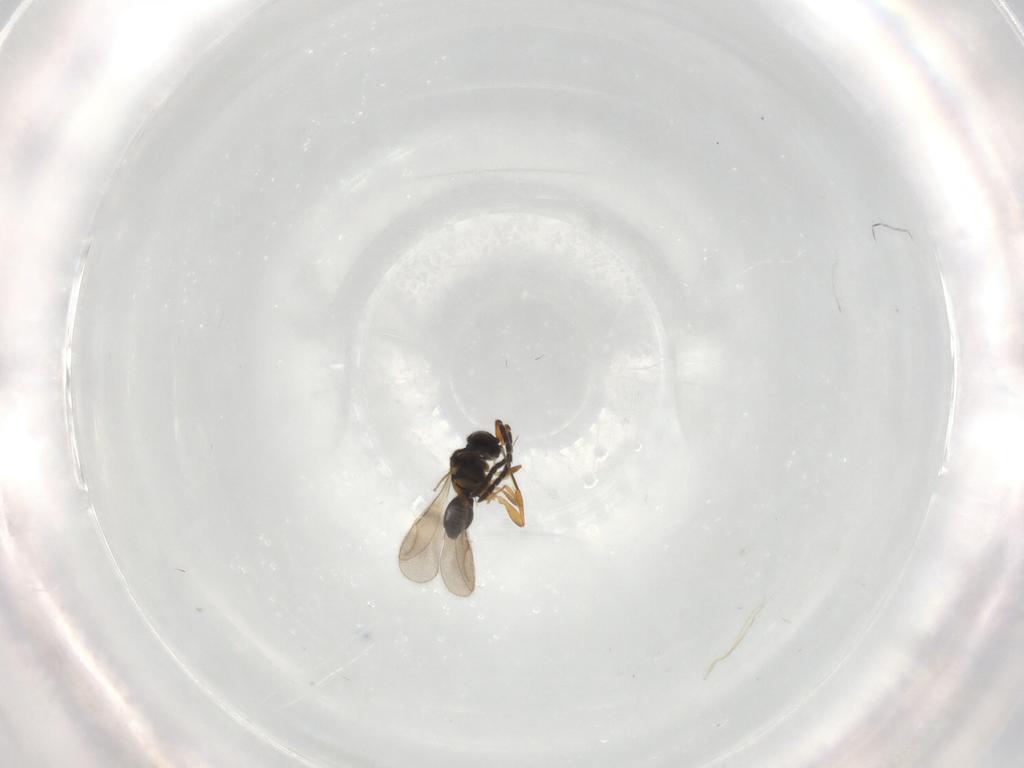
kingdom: Animalia
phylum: Arthropoda
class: Insecta
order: Hymenoptera
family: Ceraphronidae
